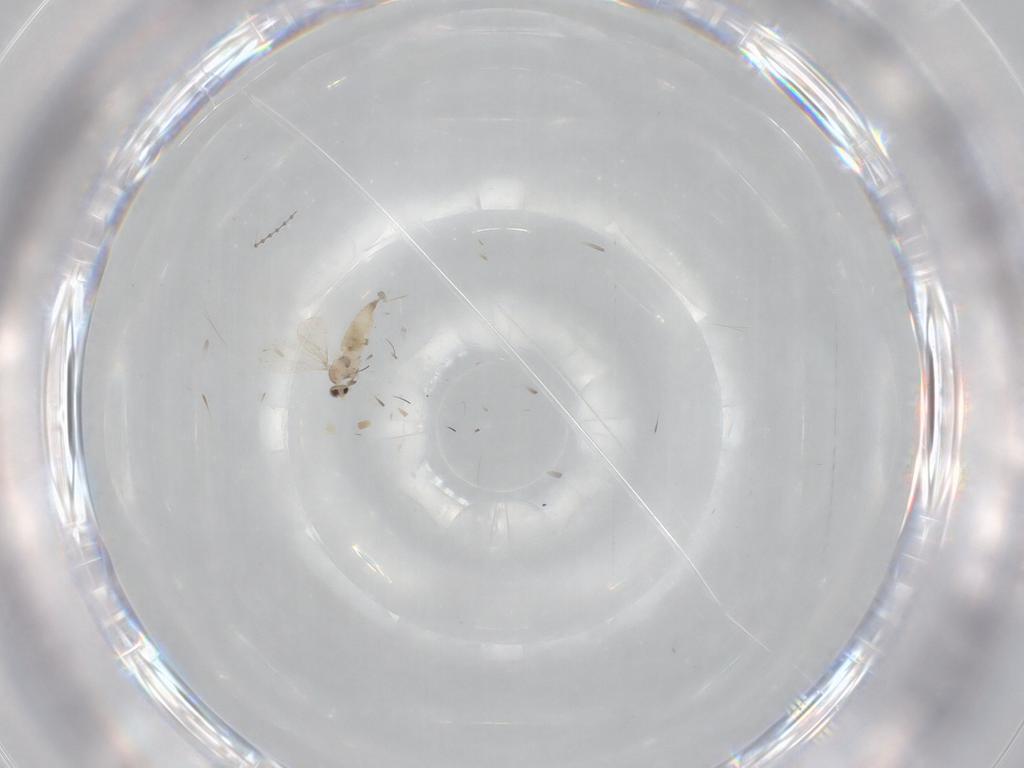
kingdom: Animalia
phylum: Arthropoda
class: Insecta
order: Diptera
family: Cecidomyiidae
